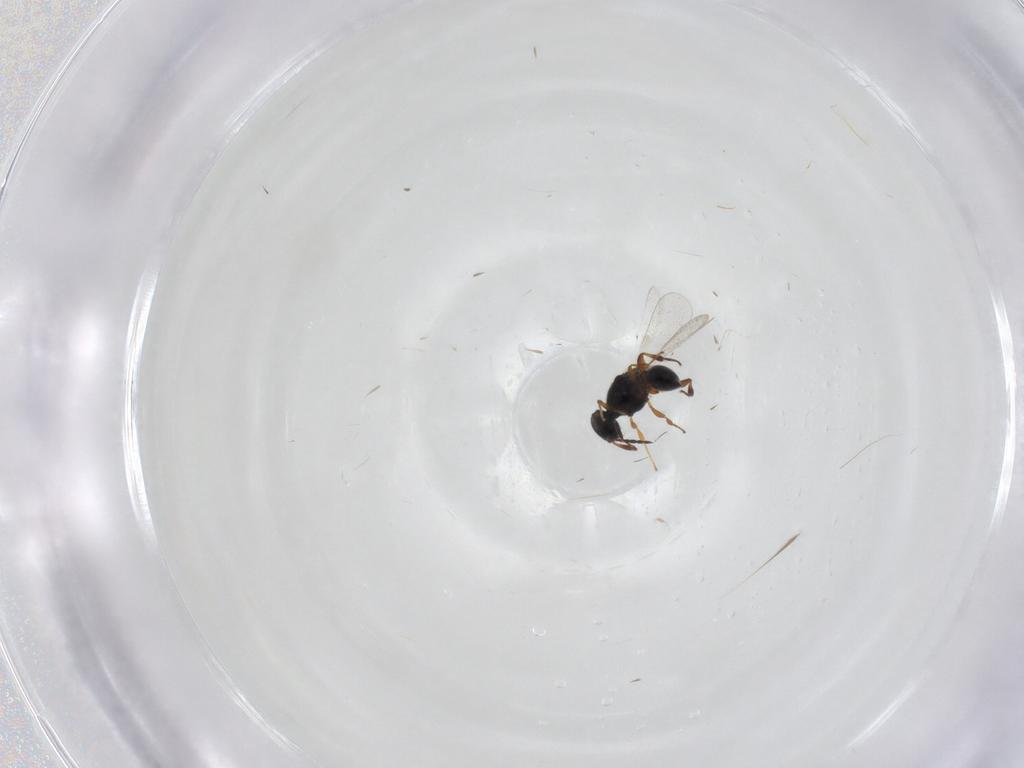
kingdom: Animalia
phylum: Arthropoda
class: Insecta
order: Hymenoptera
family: Platygastridae
